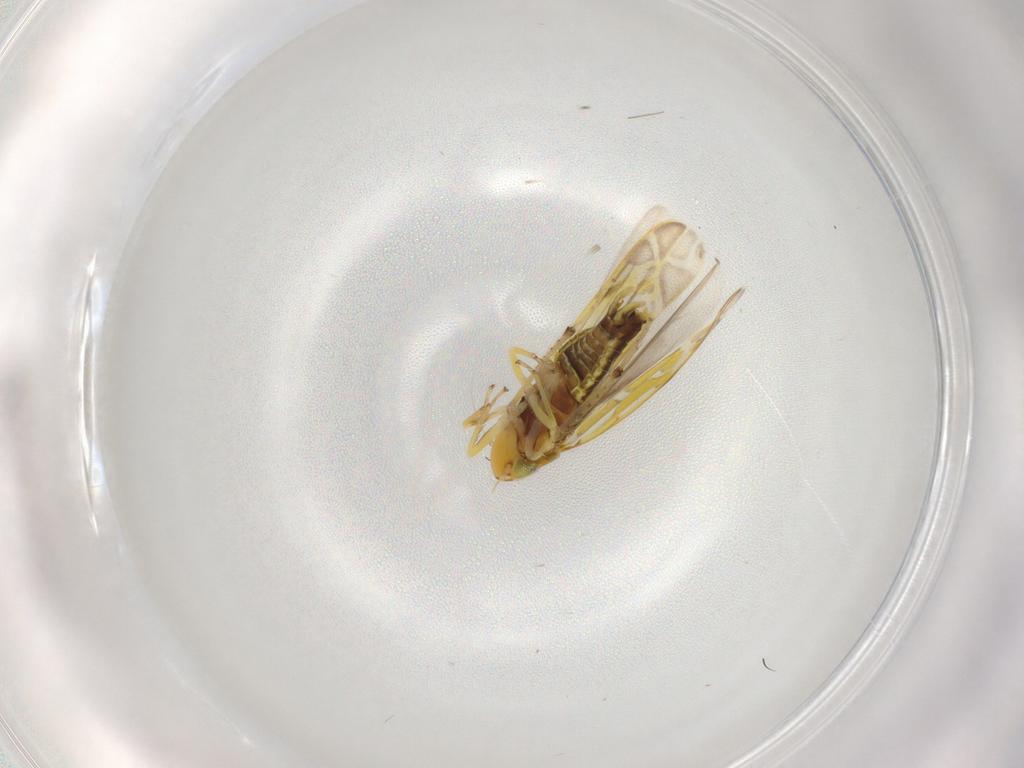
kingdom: Animalia
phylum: Arthropoda
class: Insecta
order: Hemiptera
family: Cicadellidae
